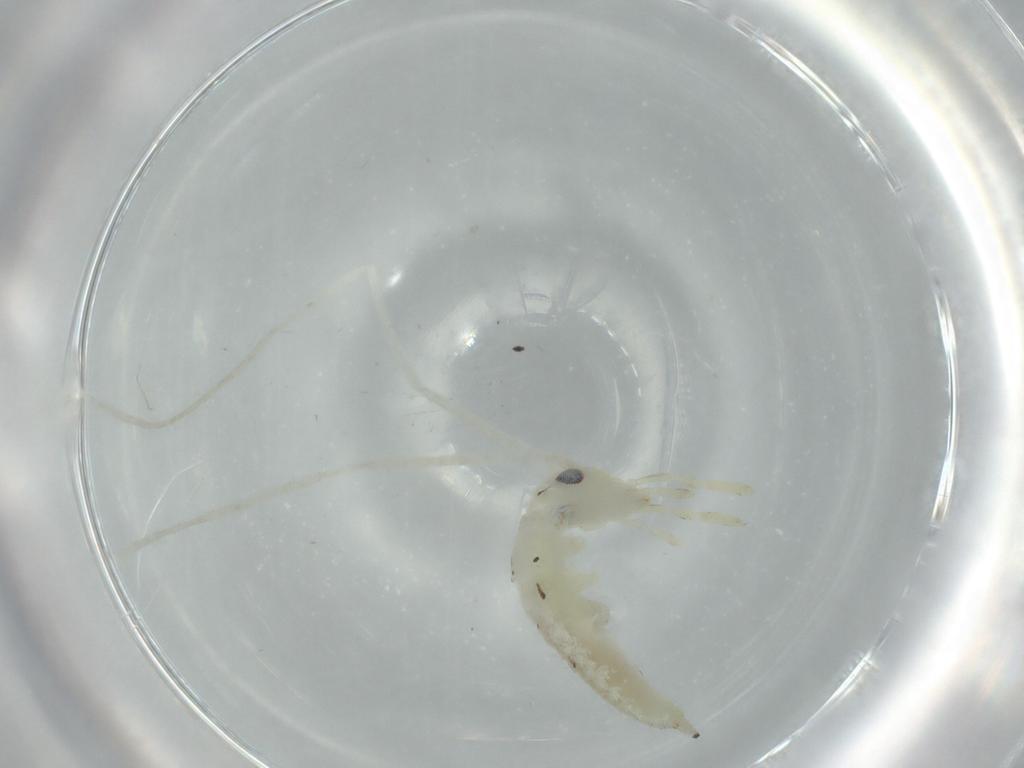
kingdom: Animalia
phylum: Arthropoda
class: Insecta
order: Orthoptera
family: Oecanthidae
